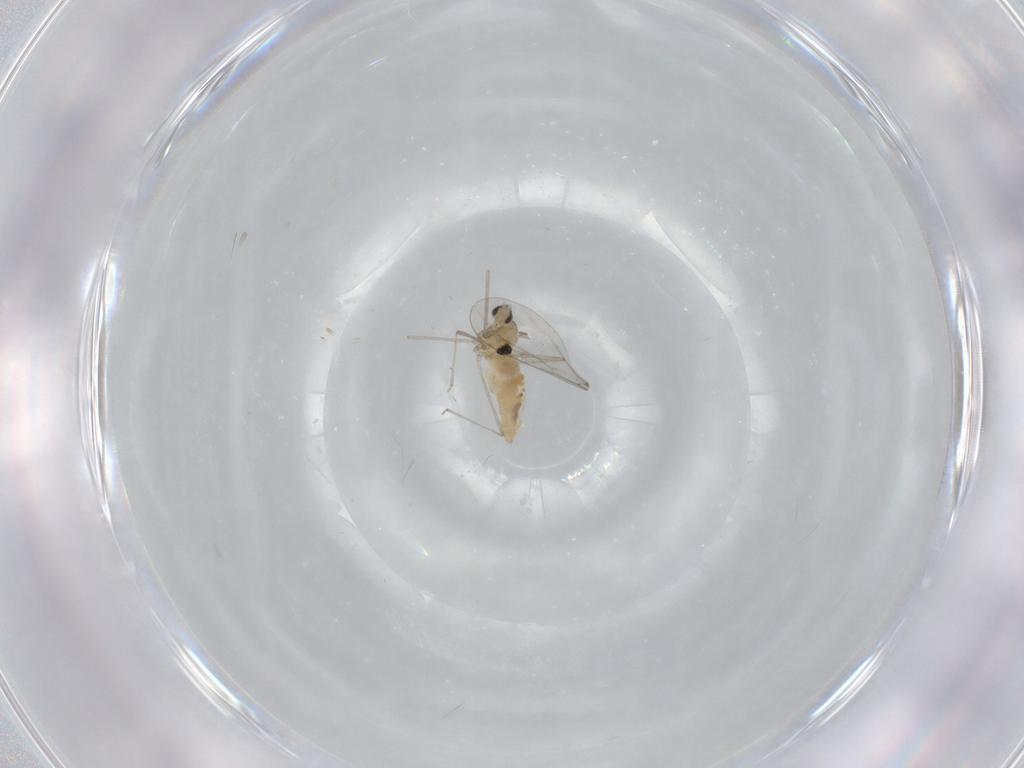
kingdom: Animalia
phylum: Arthropoda
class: Insecta
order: Diptera
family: Cecidomyiidae
